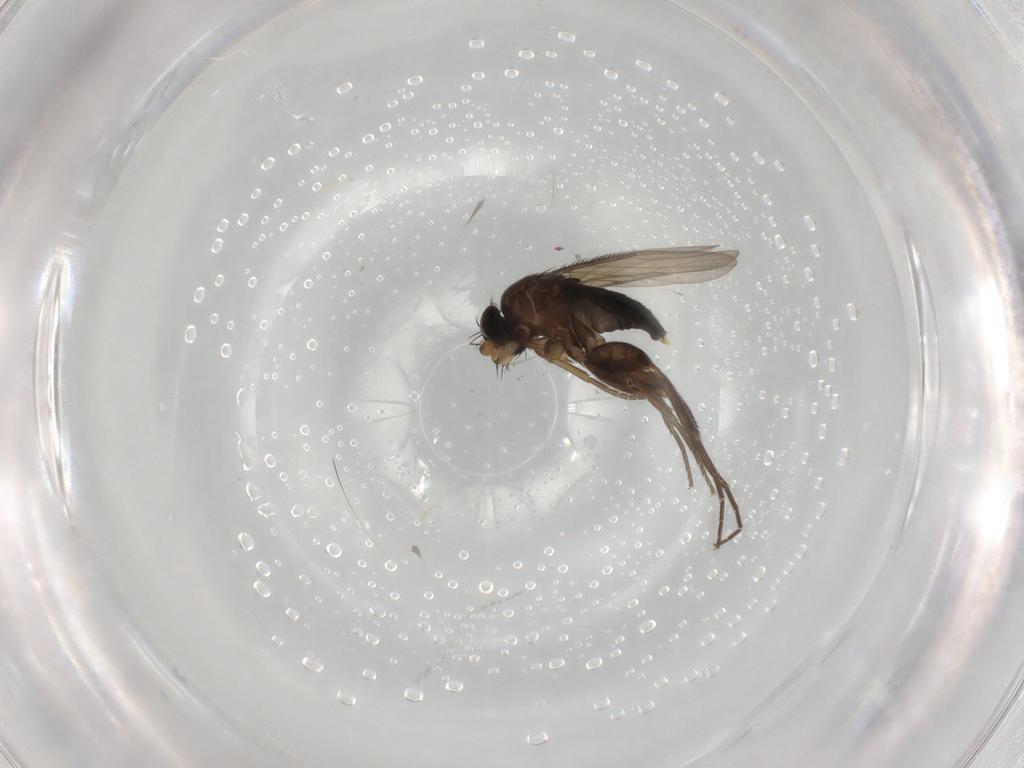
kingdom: Animalia
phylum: Arthropoda
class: Insecta
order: Diptera
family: Phoridae
